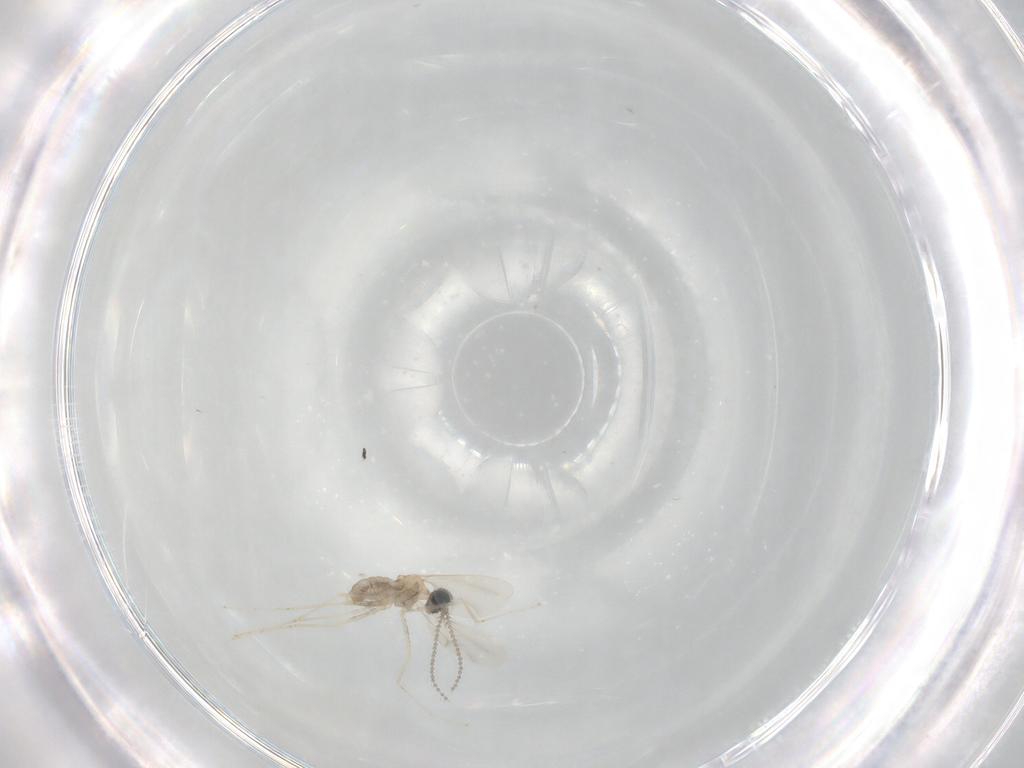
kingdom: Animalia
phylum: Arthropoda
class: Insecta
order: Diptera
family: Cecidomyiidae
